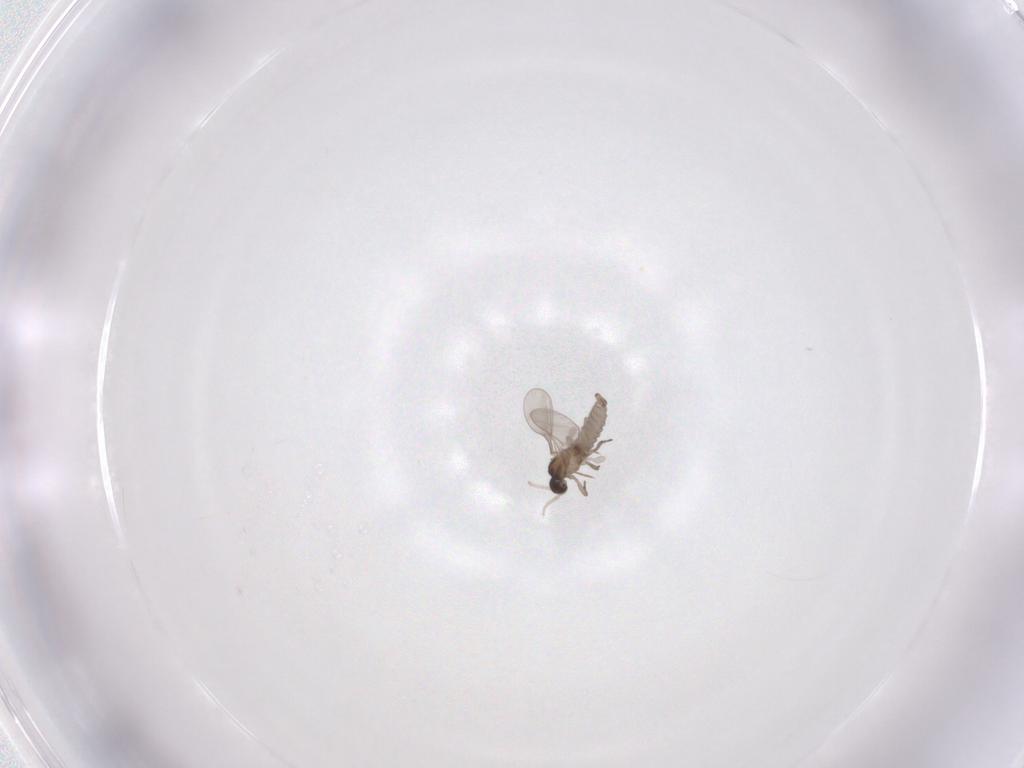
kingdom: Animalia
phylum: Arthropoda
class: Insecta
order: Diptera
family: Cecidomyiidae
